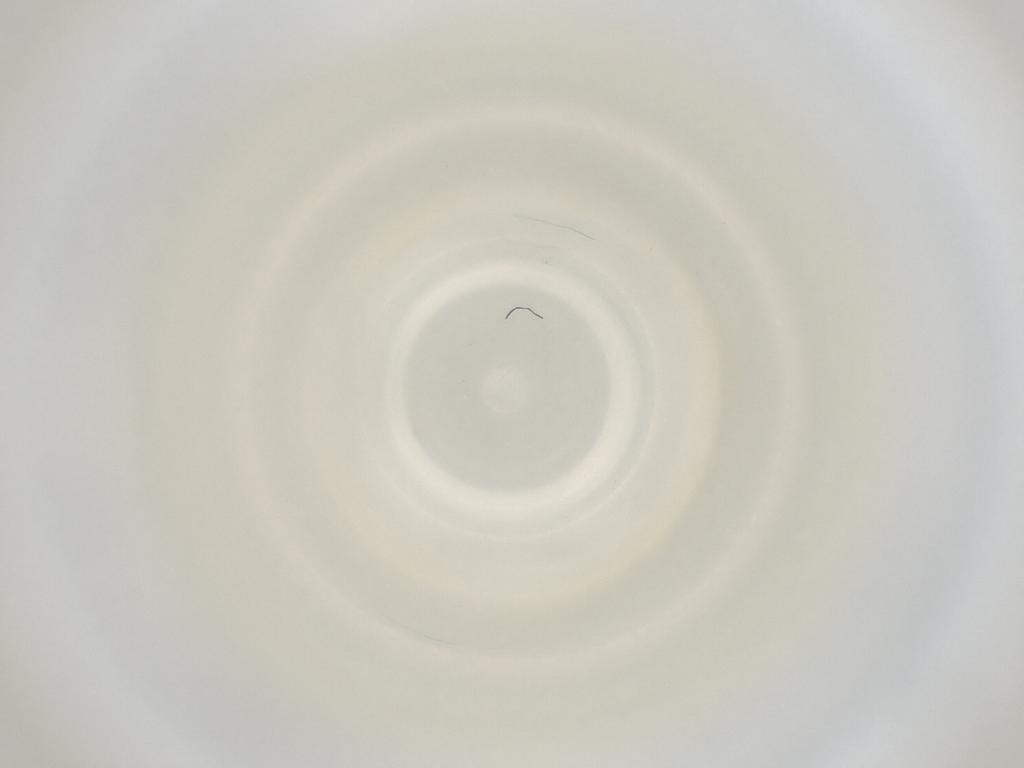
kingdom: Animalia
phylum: Arthropoda
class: Insecta
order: Diptera
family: Cecidomyiidae
